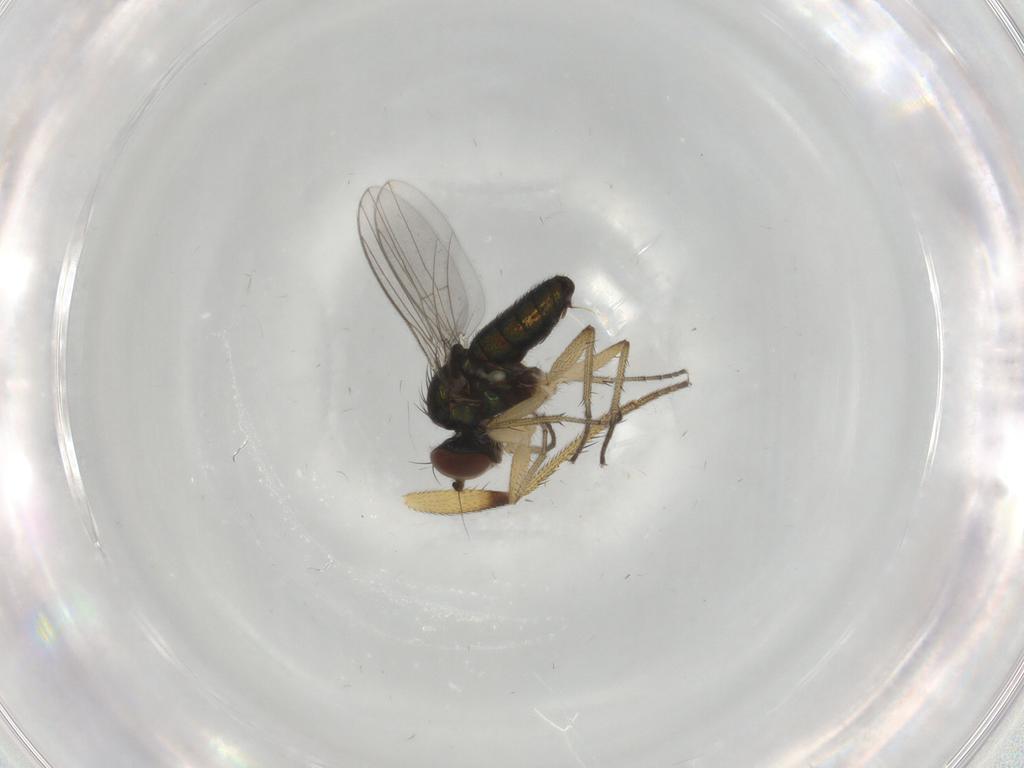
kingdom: Animalia
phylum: Arthropoda
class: Insecta
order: Diptera
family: Dolichopodidae
